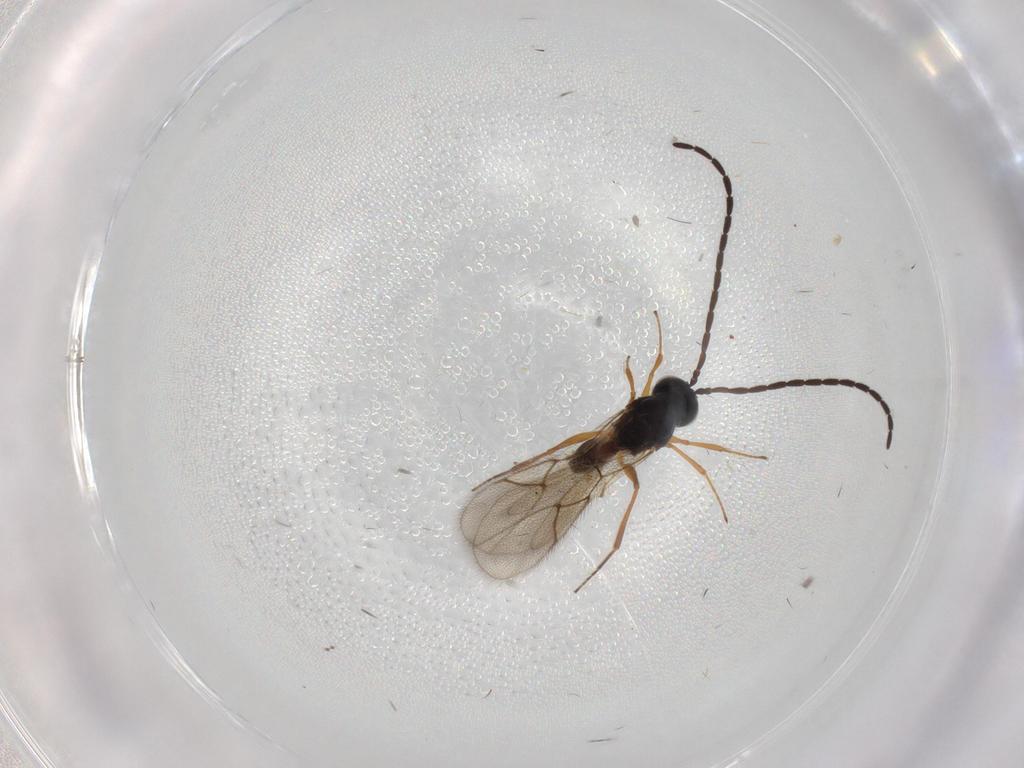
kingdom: Animalia
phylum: Arthropoda
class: Insecta
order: Hymenoptera
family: Figitidae
